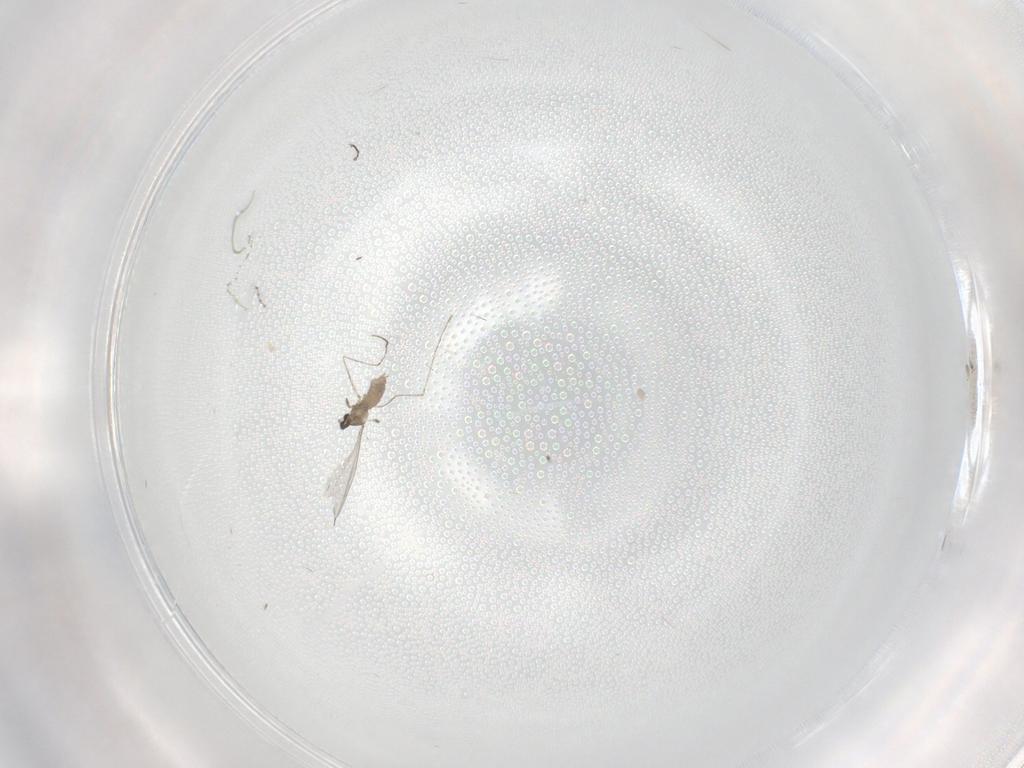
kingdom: Animalia
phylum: Arthropoda
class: Insecta
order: Diptera
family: Cecidomyiidae
